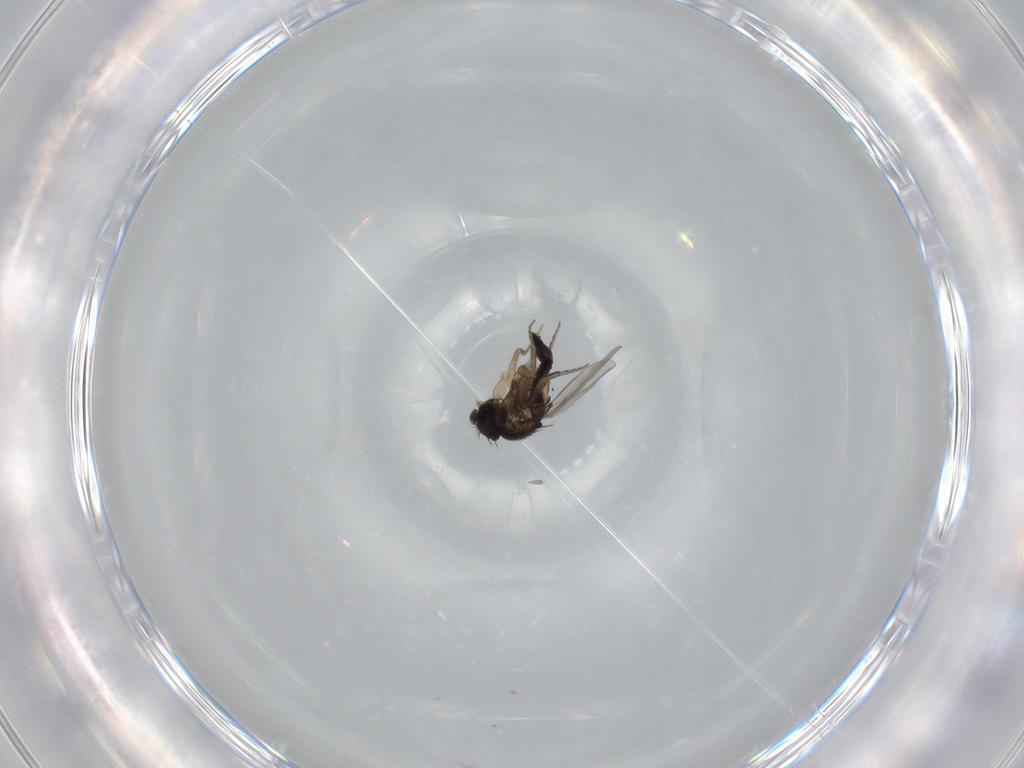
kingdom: Animalia
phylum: Arthropoda
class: Insecta
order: Diptera
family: Phoridae
